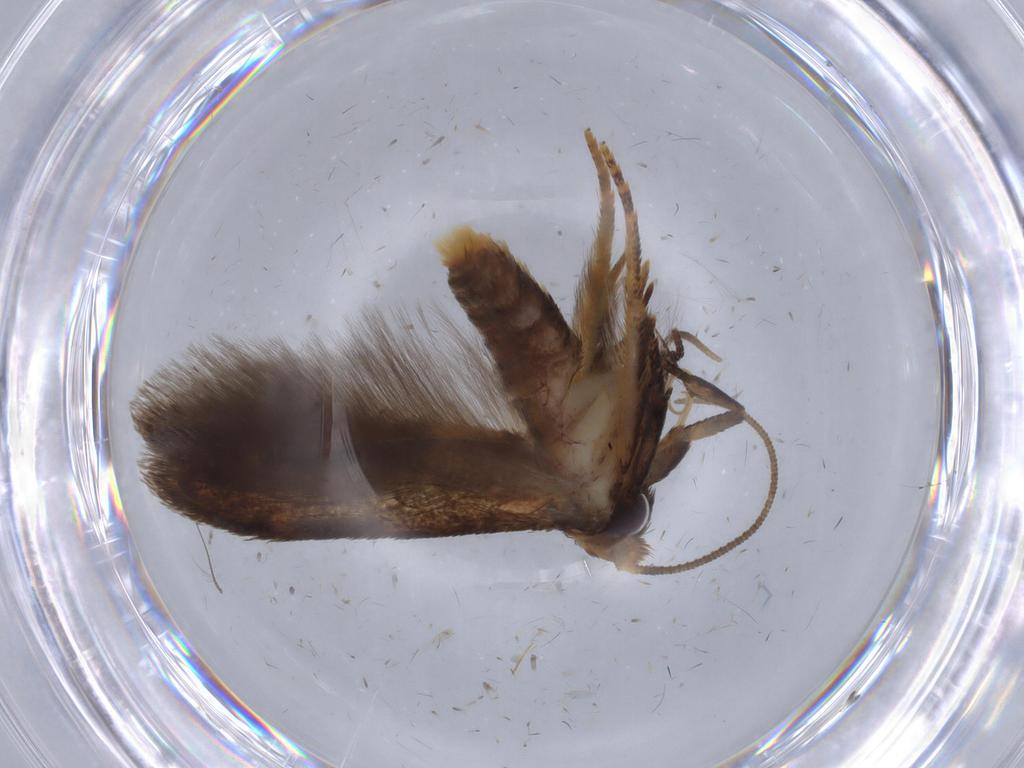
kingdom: Animalia
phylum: Arthropoda
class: Insecta
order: Lepidoptera
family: Blastobasidae
